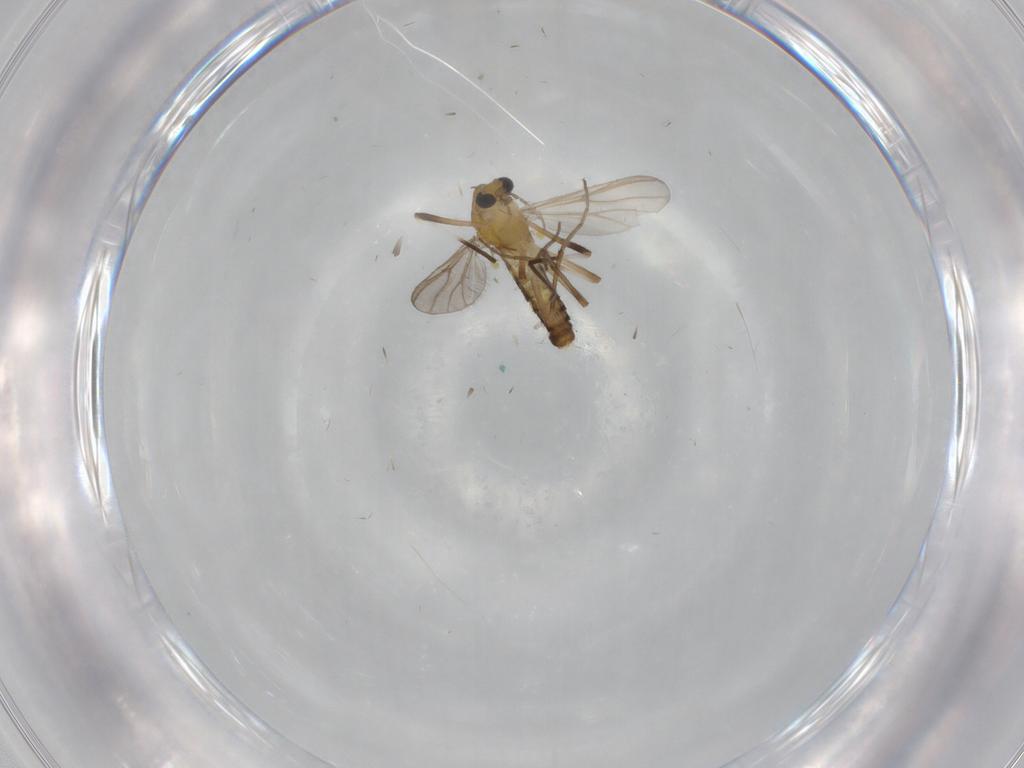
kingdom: Animalia
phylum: Arthropoda
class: Insecta
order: Diptera
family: Chironomidae
